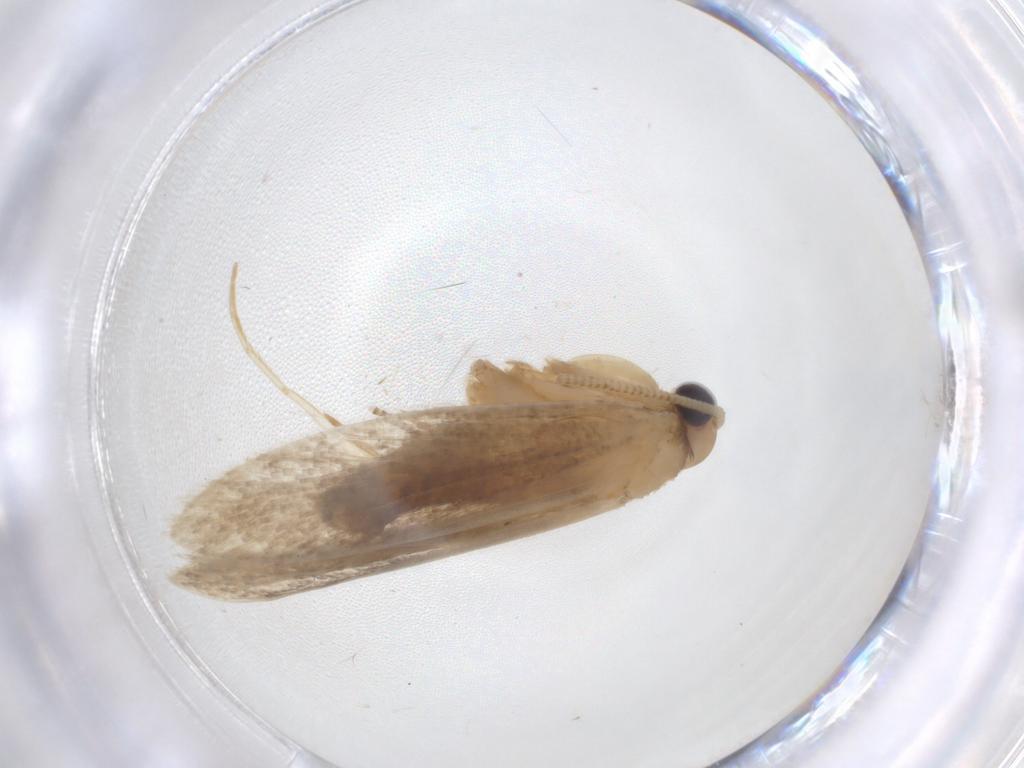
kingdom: Animalia
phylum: Arthropoda
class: Insecta
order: Lepidoptera
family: Tineidae
